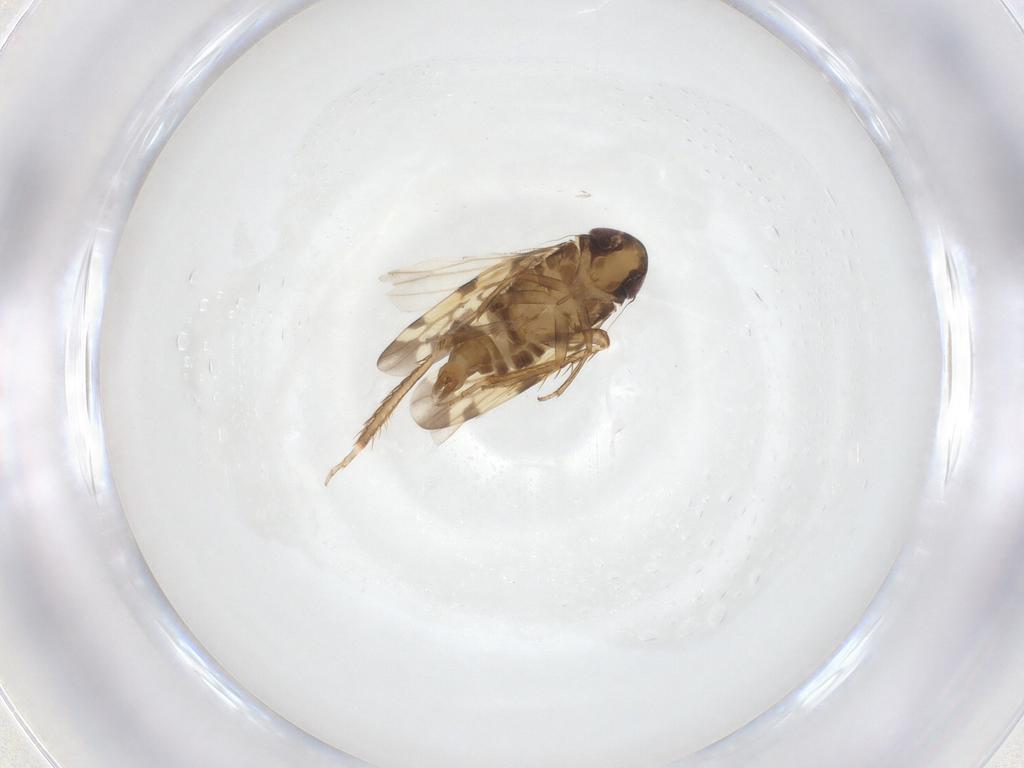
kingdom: Animalia
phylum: Arthropoda
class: Insecta
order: Hemiptera
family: Cicadellidae
